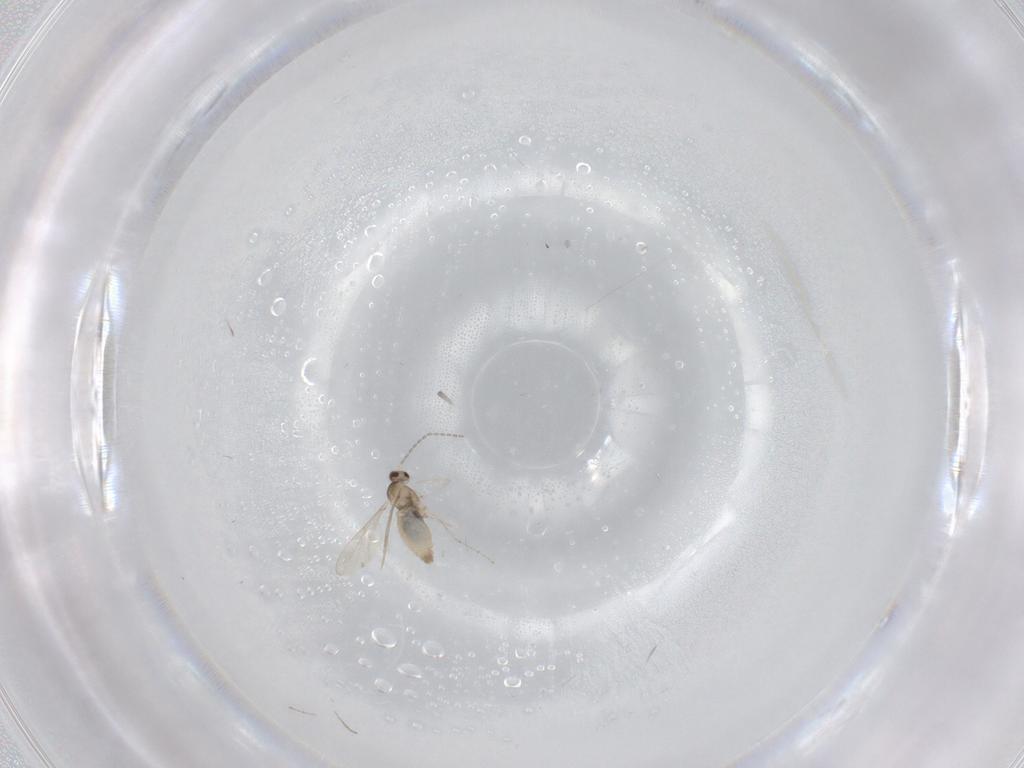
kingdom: Animalia
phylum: Arthropoda
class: Insecta
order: Diptera
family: Cecidomyiidae
